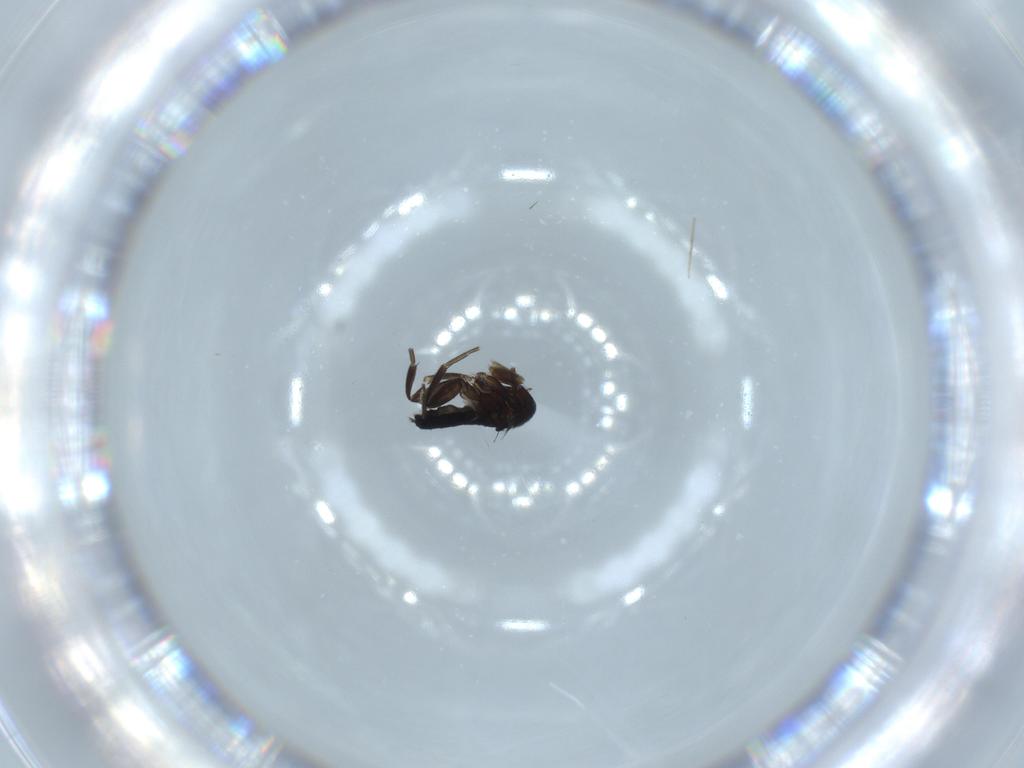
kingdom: Animalia
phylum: Arthropoda
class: Insecta
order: Diptera
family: Phoridae
